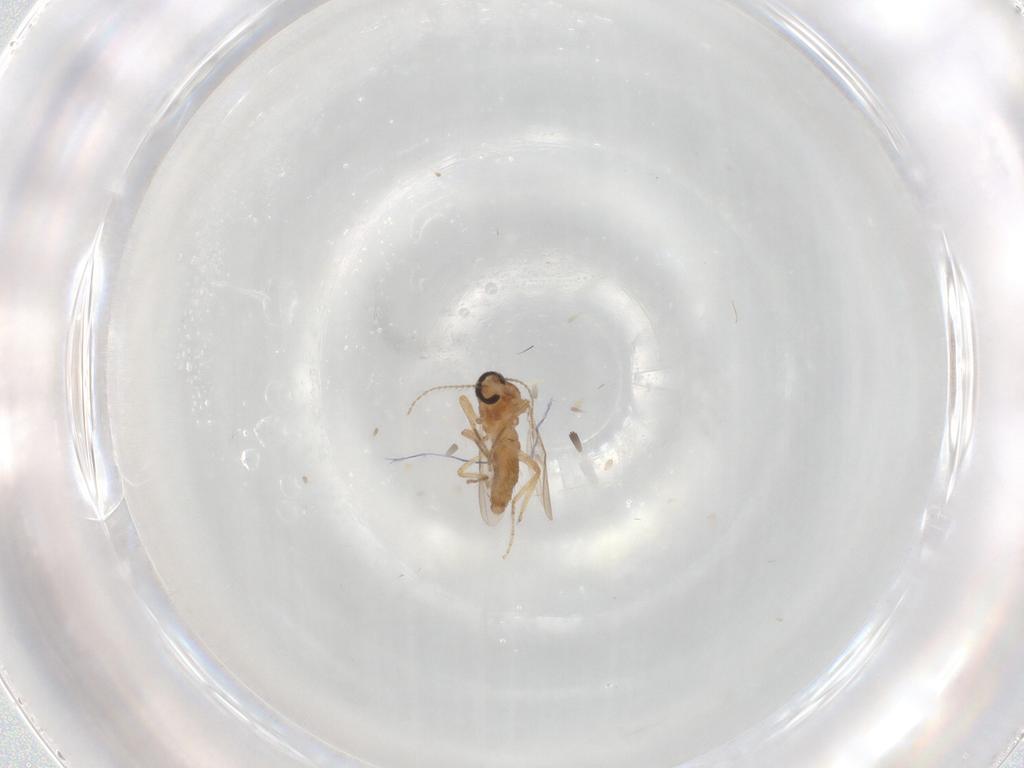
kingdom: Animalia
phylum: Arthropoda
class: Insecta
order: Diptera
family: Ceratopogonidae
